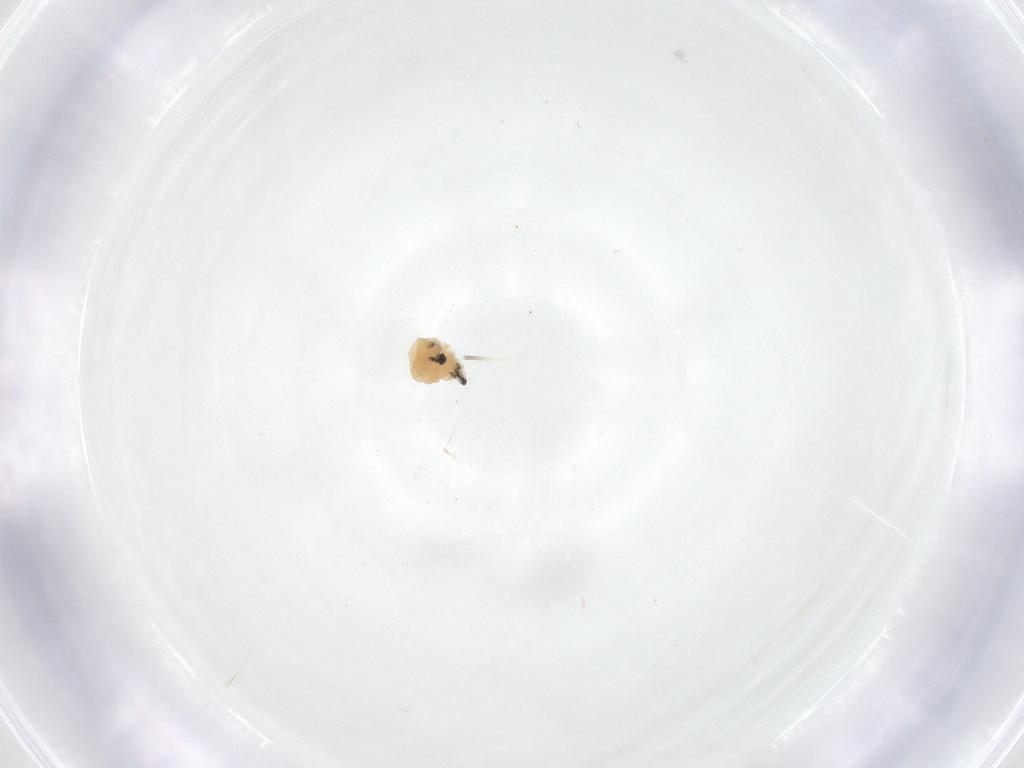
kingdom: Animalia
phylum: Arthropoda
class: Insecta
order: Diptera
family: Fergusoninidae
